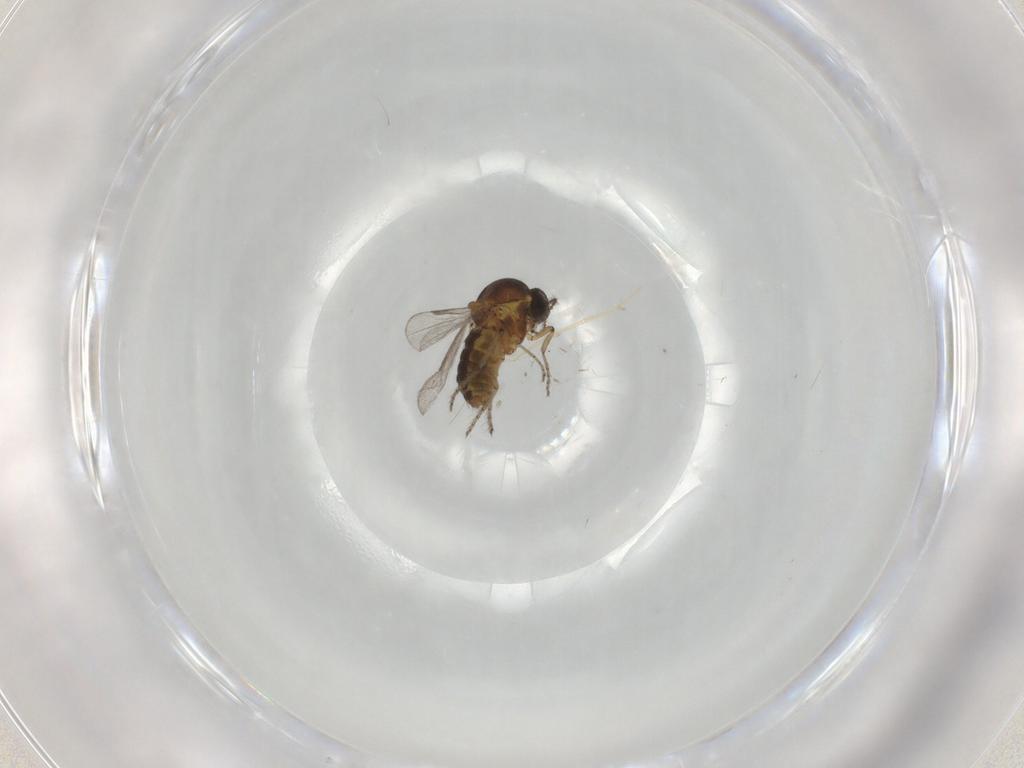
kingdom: Animalia
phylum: Arthropoda
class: Insecta
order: Diptera
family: Ceratopogonidae
